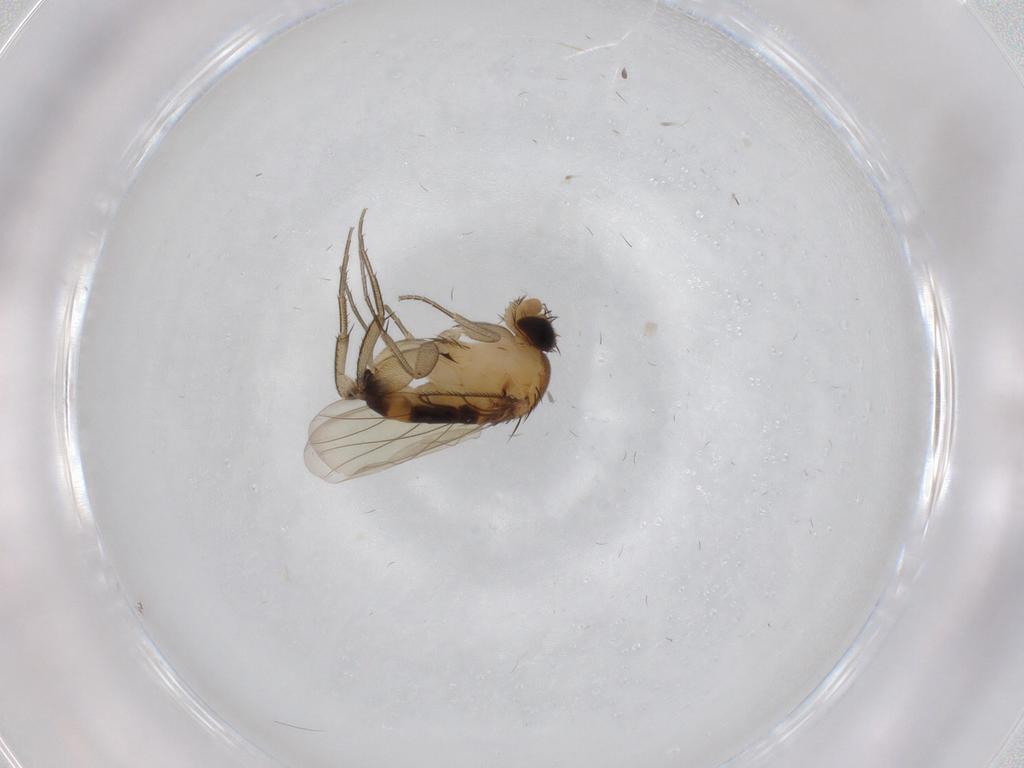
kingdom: Animalia
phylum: Arthropoda
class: Insecta
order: Diptera
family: Phoridae
